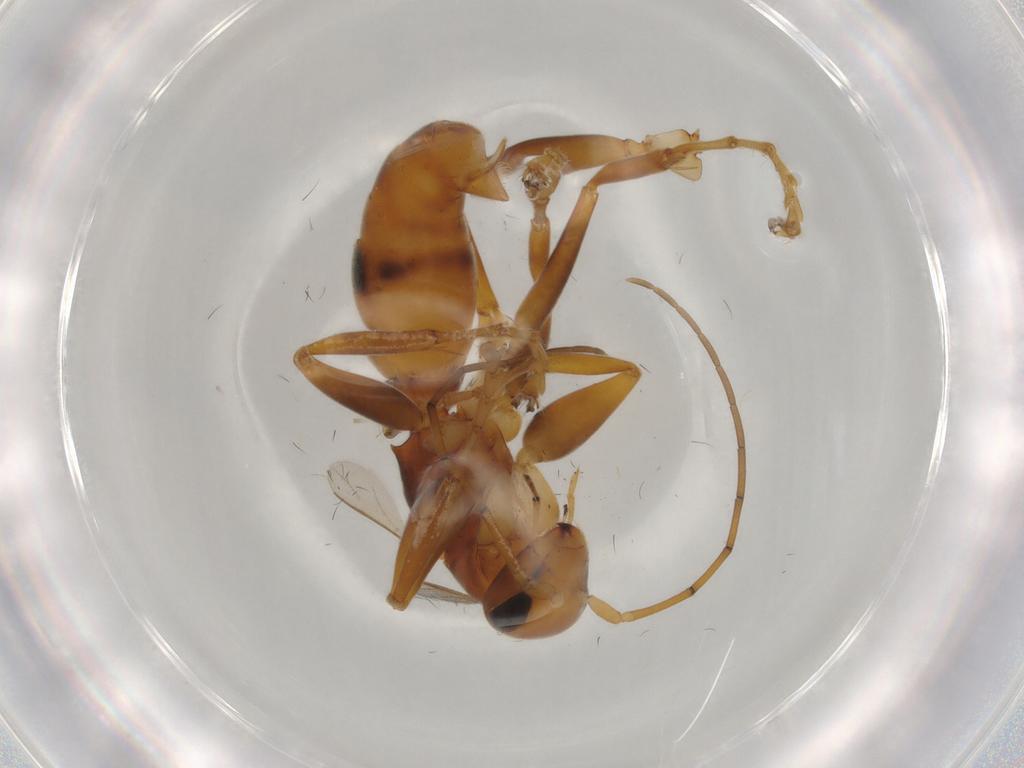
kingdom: Animalia
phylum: Arthropoda
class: Insecta
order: Hymenoptera
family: Rhopalosomatidae
